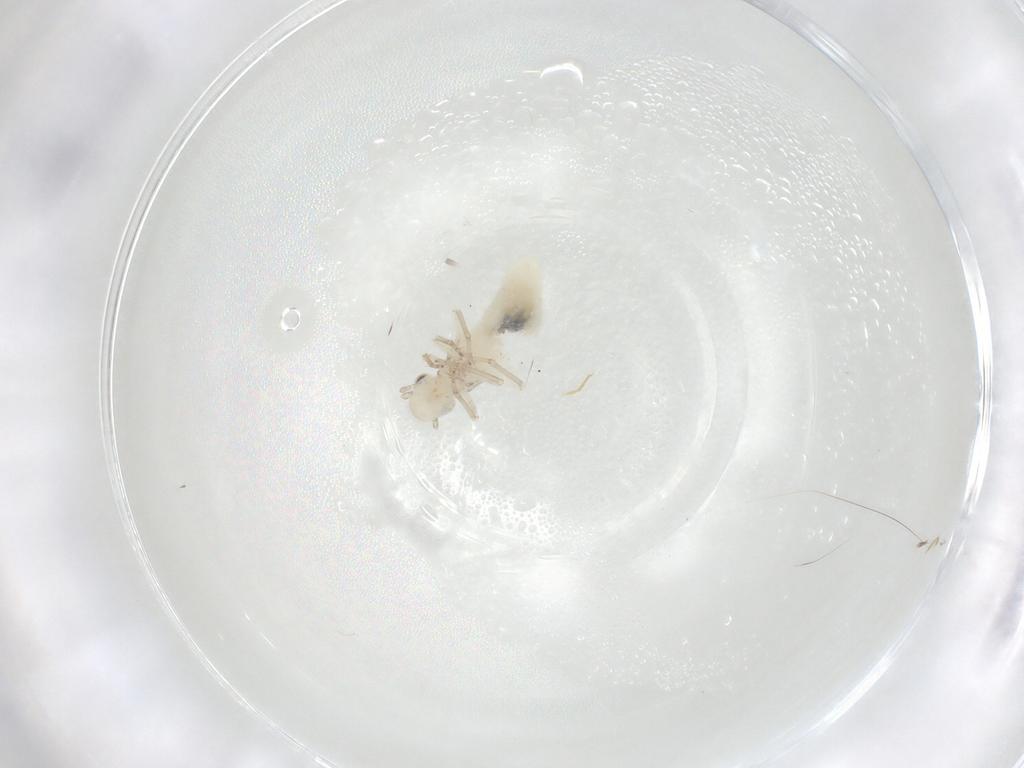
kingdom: Animalia
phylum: Arthropoda
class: Insecta
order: Psocodea
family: Caeciliusidae
